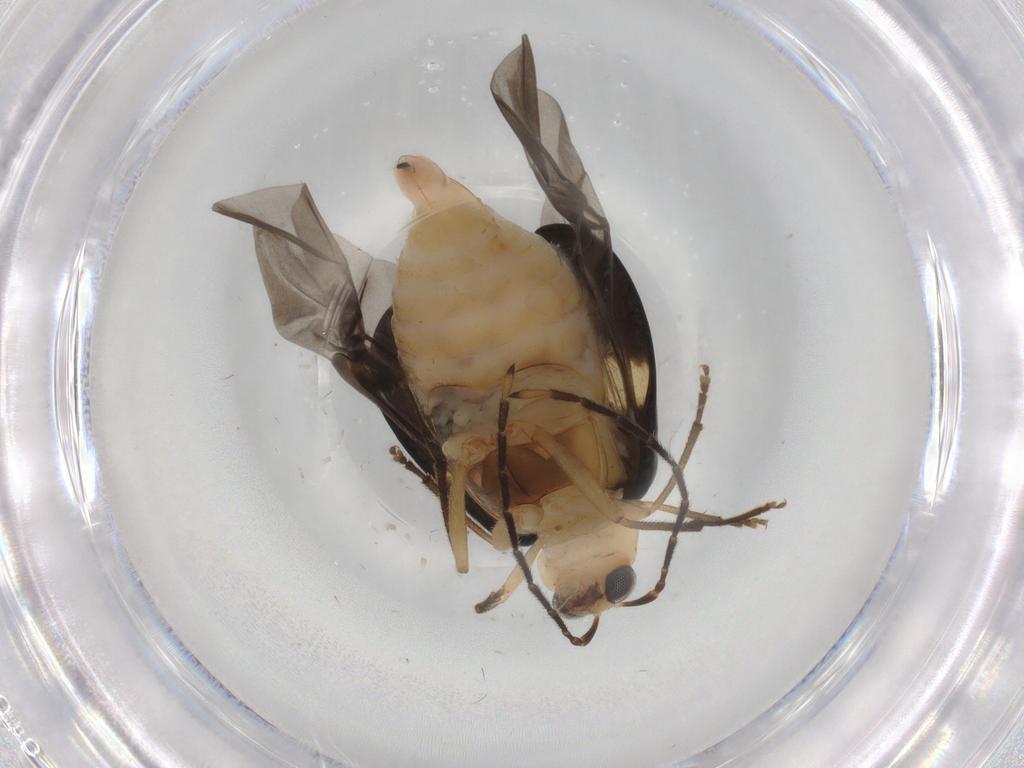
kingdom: Animalia
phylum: Arthropoda
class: Insecta
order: Coleoptera
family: Chrysomelidae
